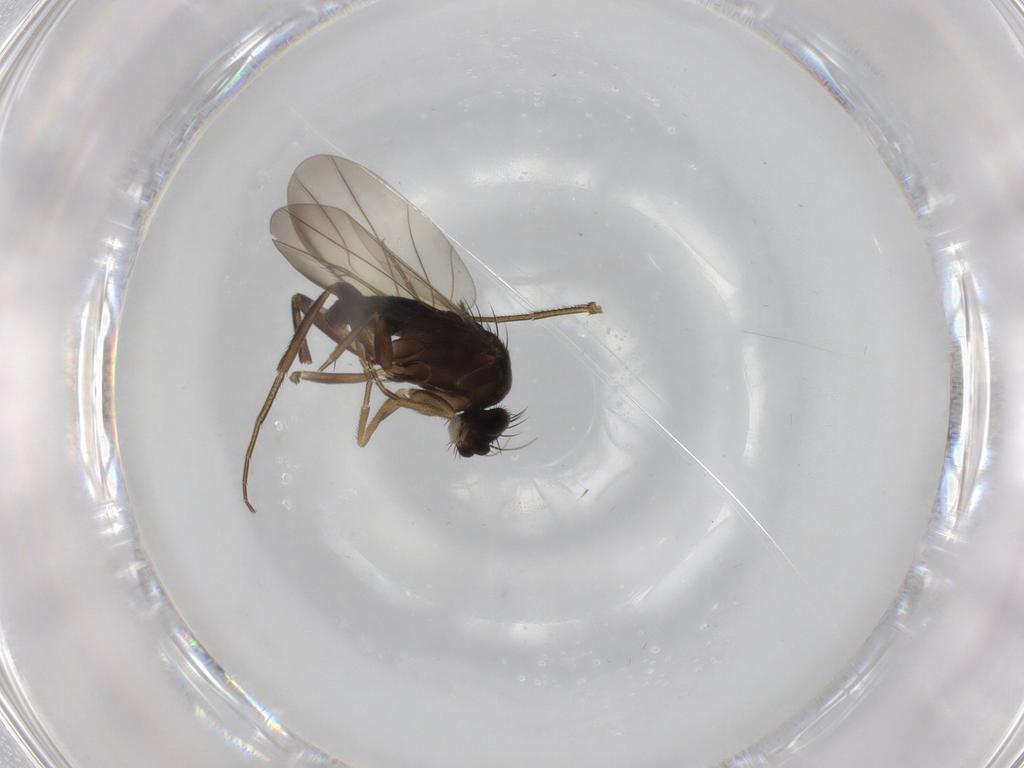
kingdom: Animalia
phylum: Arthropoda
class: Insecta
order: Diptera
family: Phoridae
